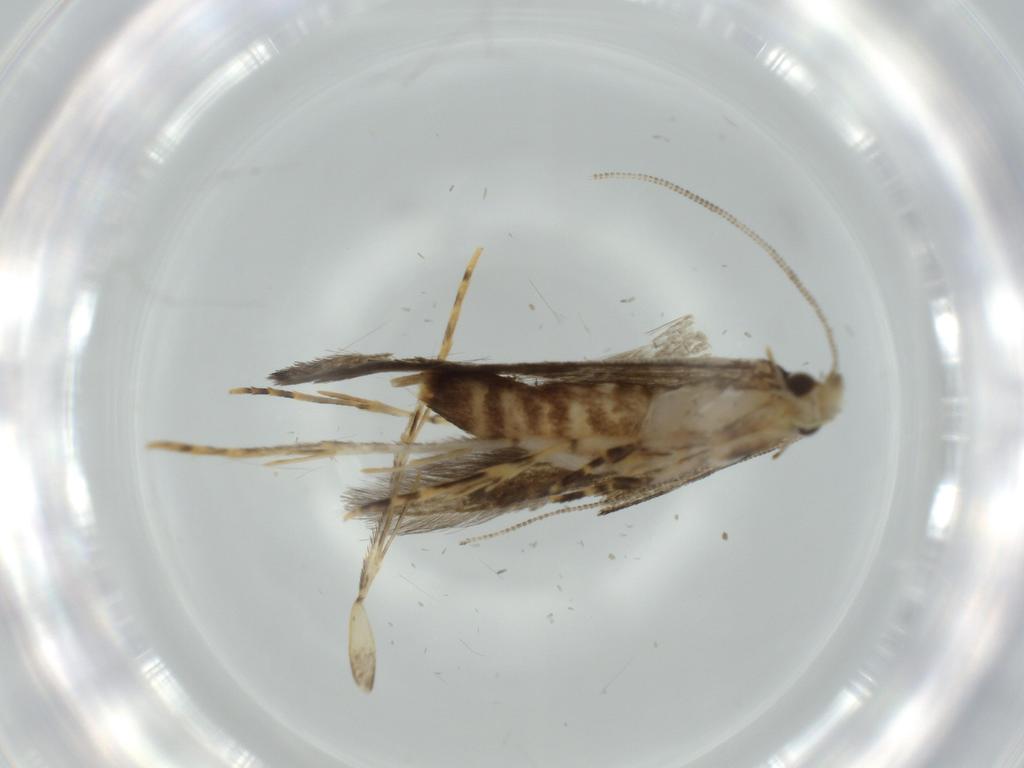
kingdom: Animalia
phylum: Arthropoda
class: Insecta
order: Lepidoptera
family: Meessiidae
